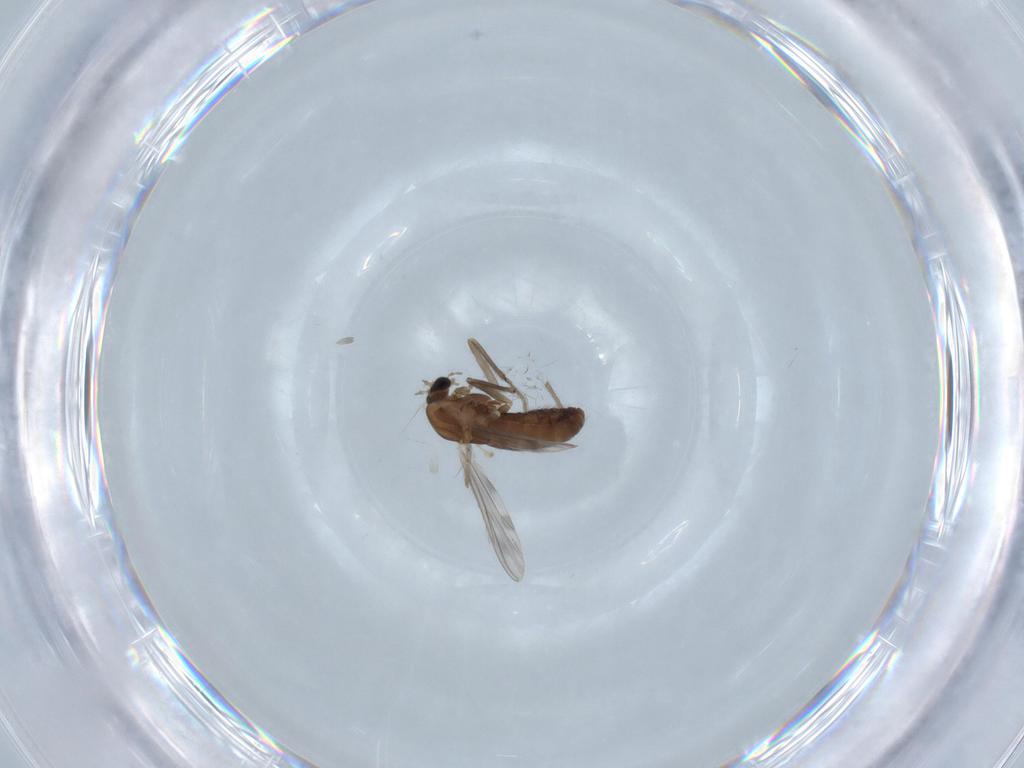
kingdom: Animalia
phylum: Arthropoda
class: Insecta
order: Diptera
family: Chironomidae
